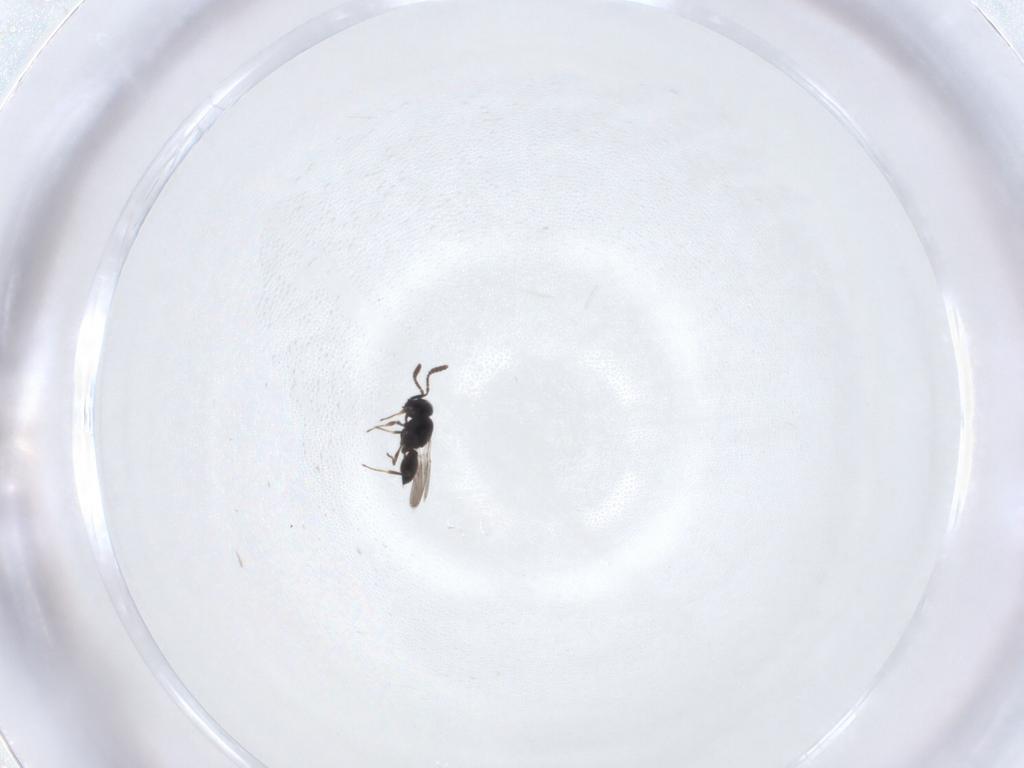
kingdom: Animalia
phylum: Arthropoda
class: Insecta
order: Hymenoptera
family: Scelionidae
